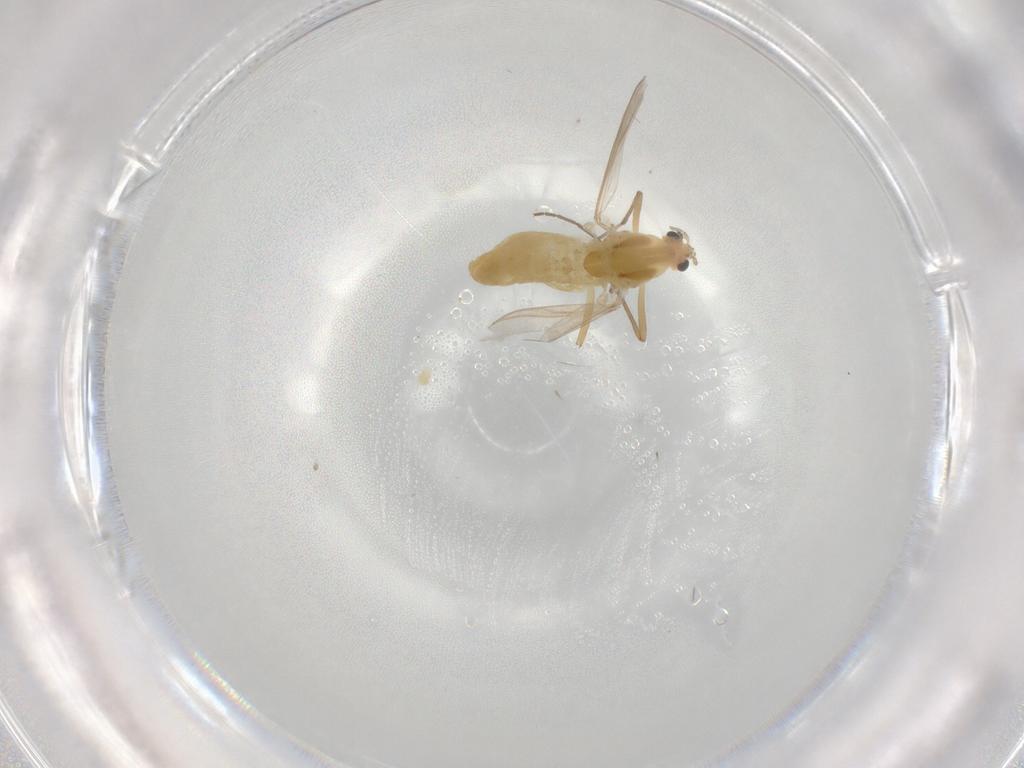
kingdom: Animalia
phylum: Arthropoda
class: Insecta
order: Diptera
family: Chironomidae
